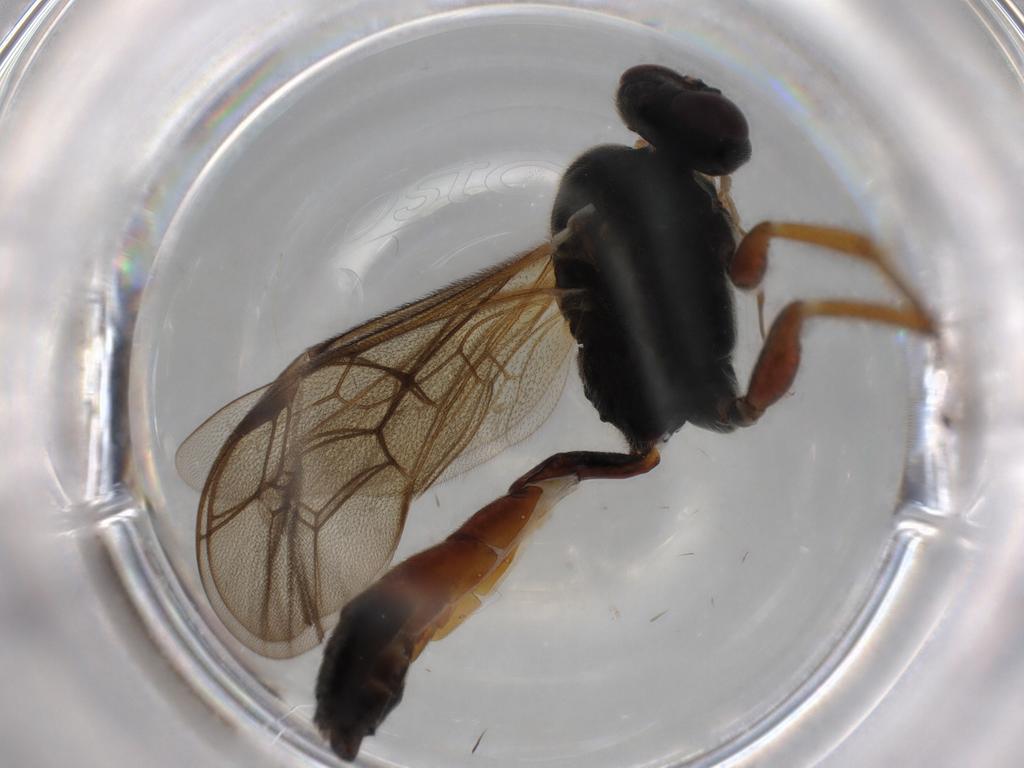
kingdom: Animalia
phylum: Arthropoda
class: Insecta
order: Hymenoptera
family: Ichneumonidae
